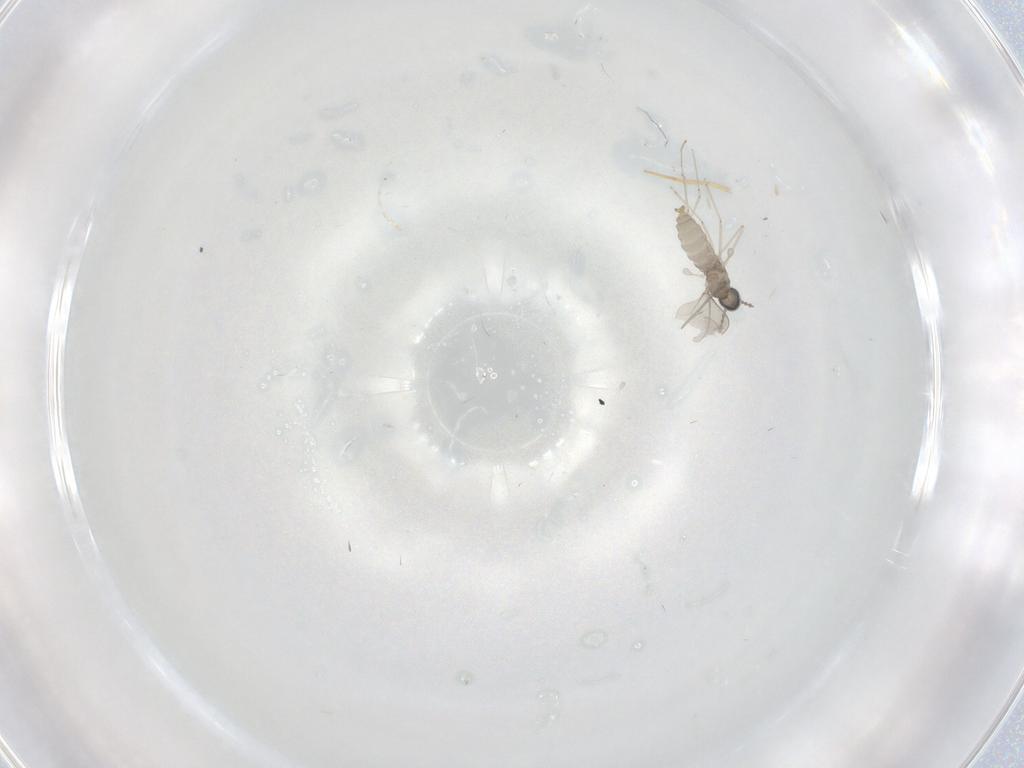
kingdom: Animalia
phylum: Arthropoda
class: Insecta
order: Diptera
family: Cecidomyiidae
